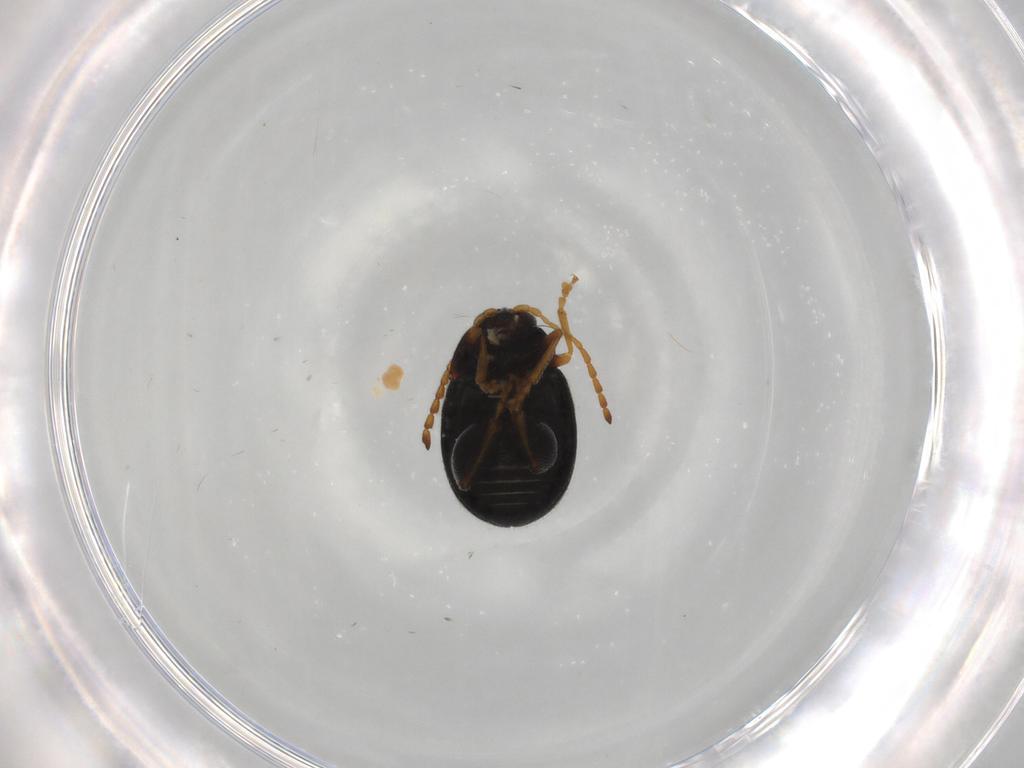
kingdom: Animalia
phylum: Arthropoda
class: Insecta
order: Coleoptera
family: Chrysomelidae
